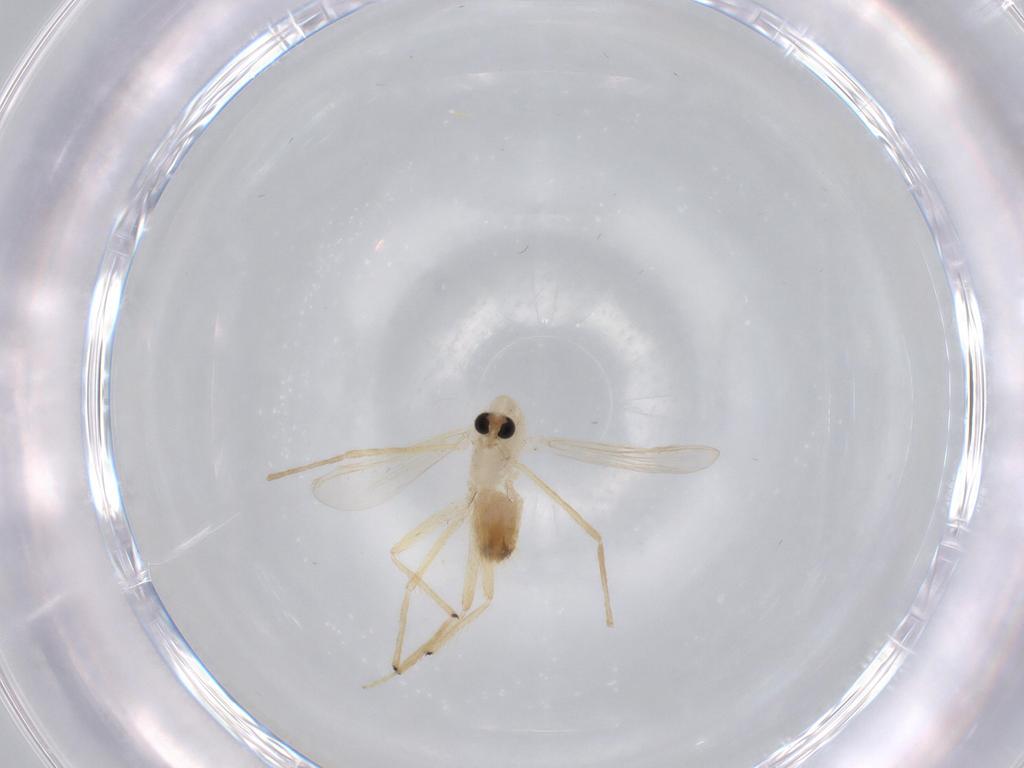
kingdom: Animalia
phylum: Arthropoda
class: Insecta
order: Diptera
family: Chironomidae
